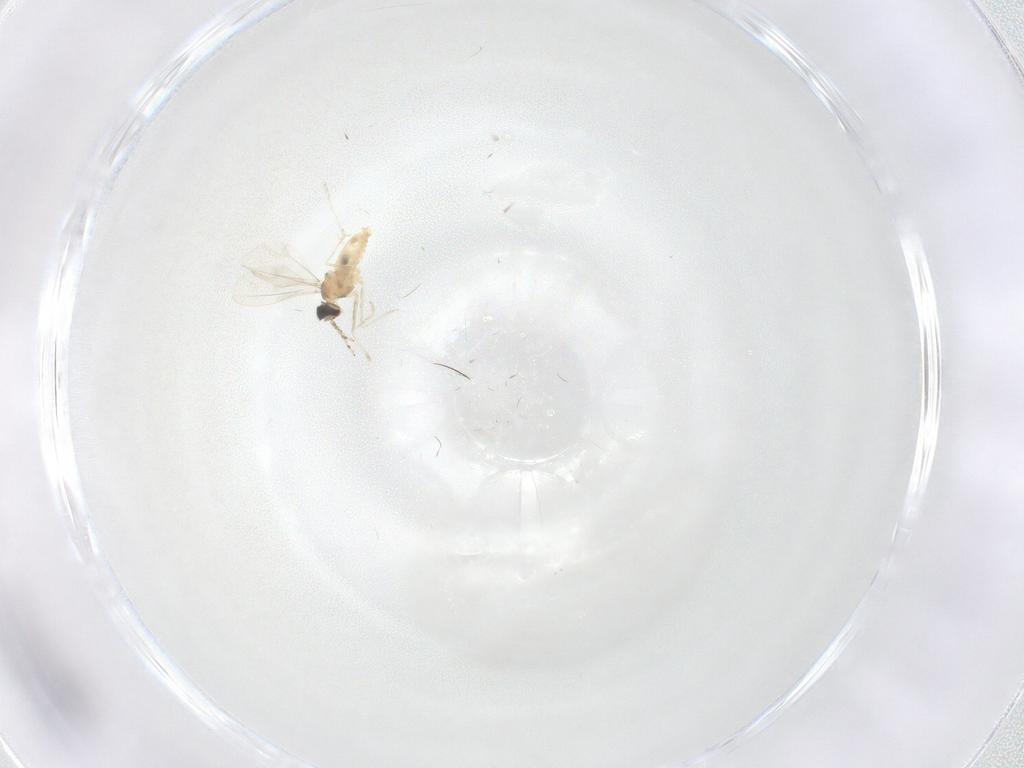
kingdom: Animalia
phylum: Arthropoda
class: Insecta
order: Diptera
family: Cecidomyiidae
